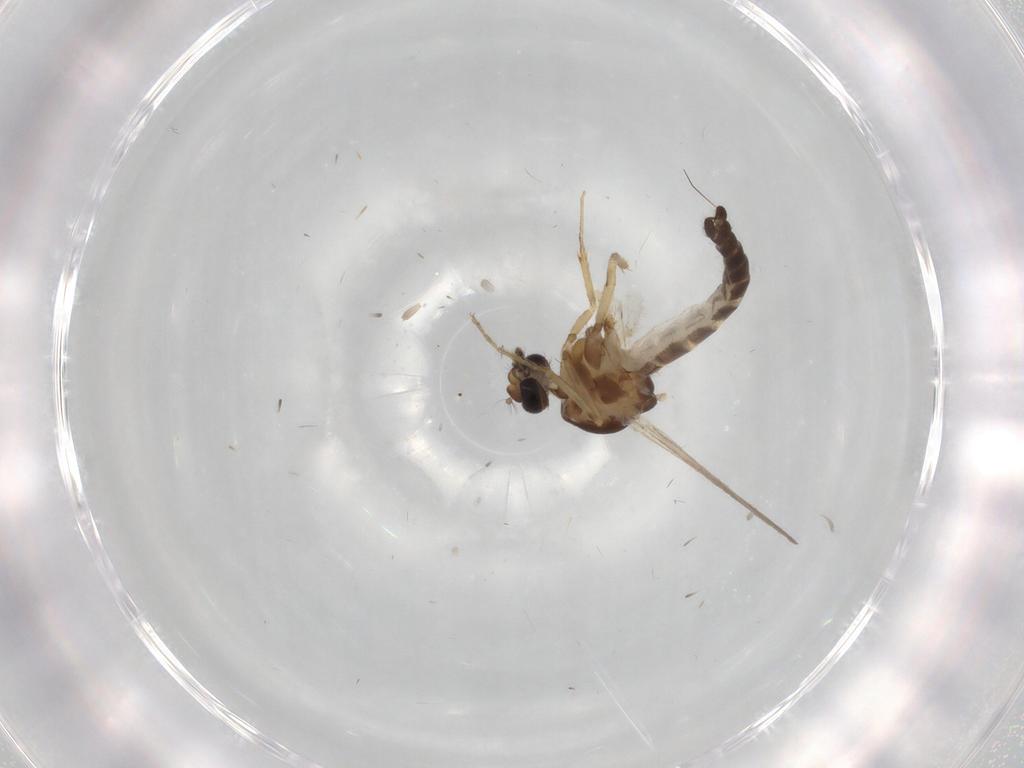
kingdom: Animalia
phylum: Arthropoda
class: Insecta
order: Diptera
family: Ceratopogonidae
